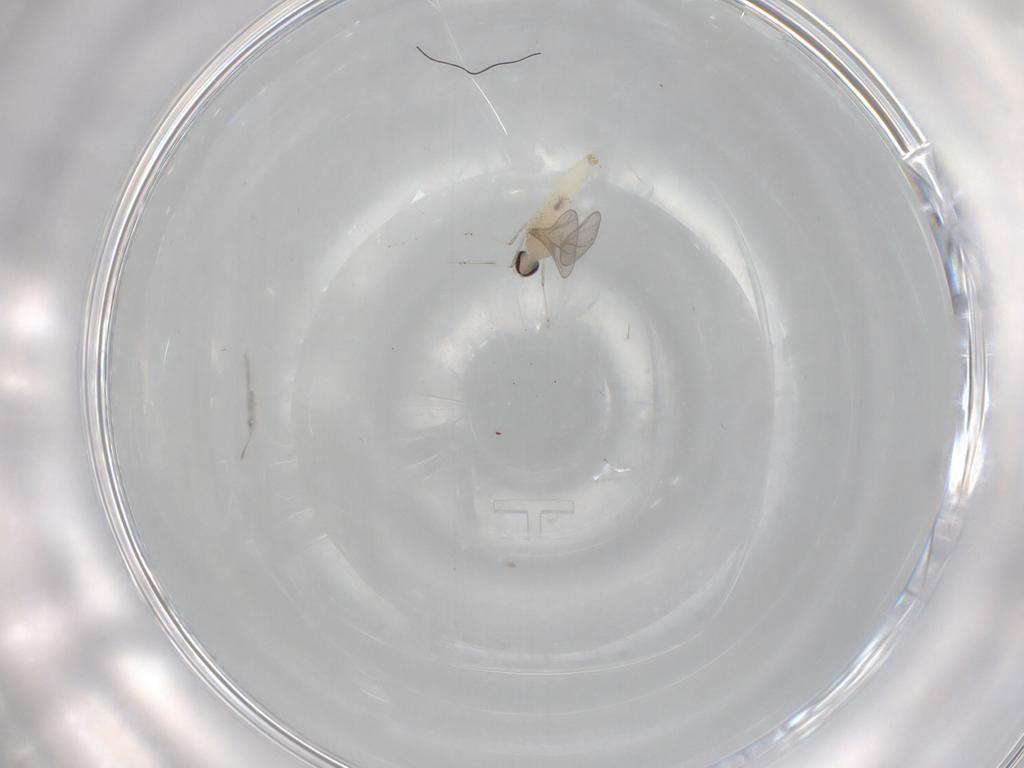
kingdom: Animalia
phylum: Arthropoda
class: Insecta
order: Diptera
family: Cecidomyiidae
